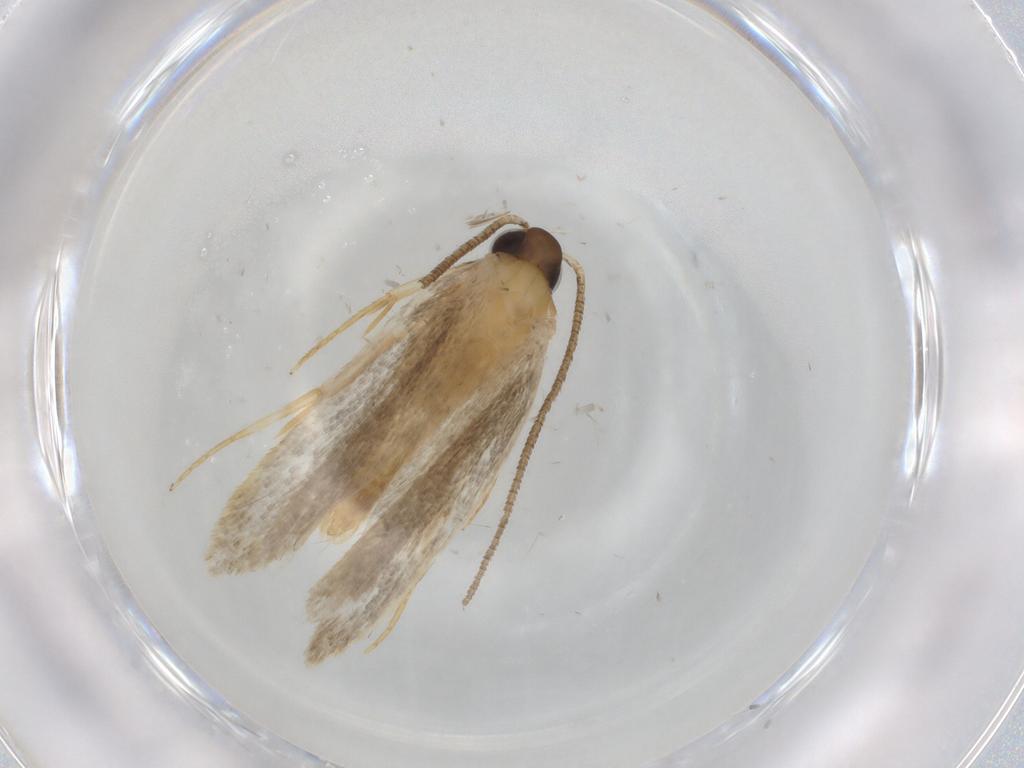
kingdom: Animalia
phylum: Arthropoda
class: Insecta
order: Lepidoptera
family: Autostichidae
